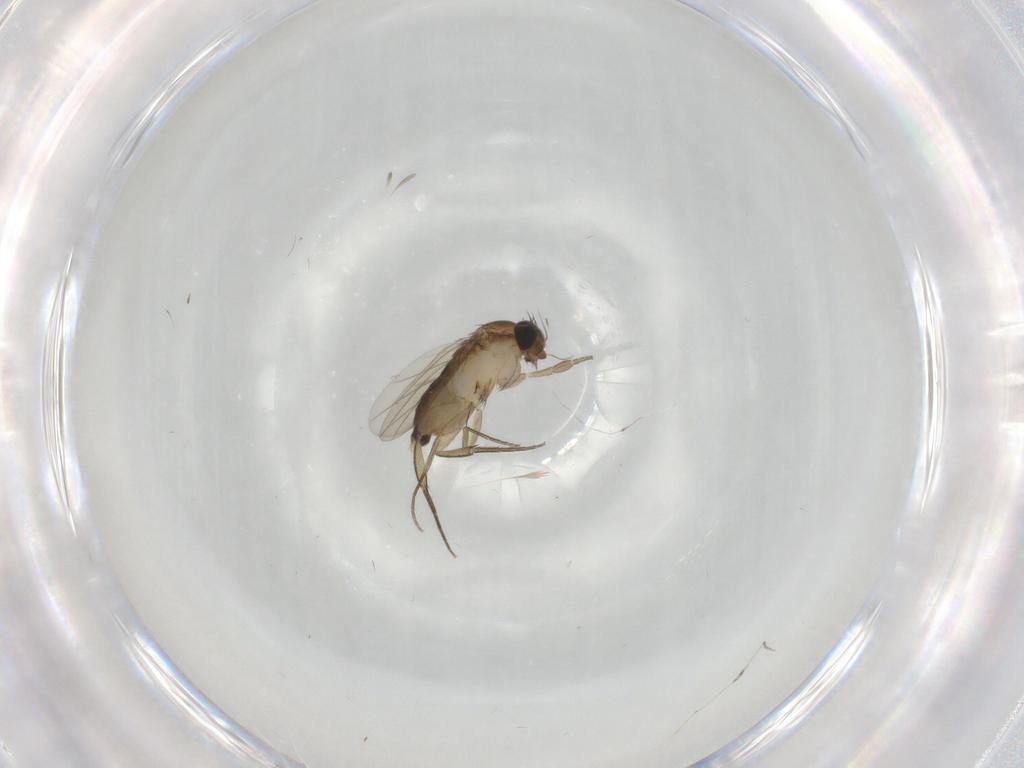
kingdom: Animalia
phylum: Arthropoda
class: Insecta
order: Diptera
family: Phoridae
